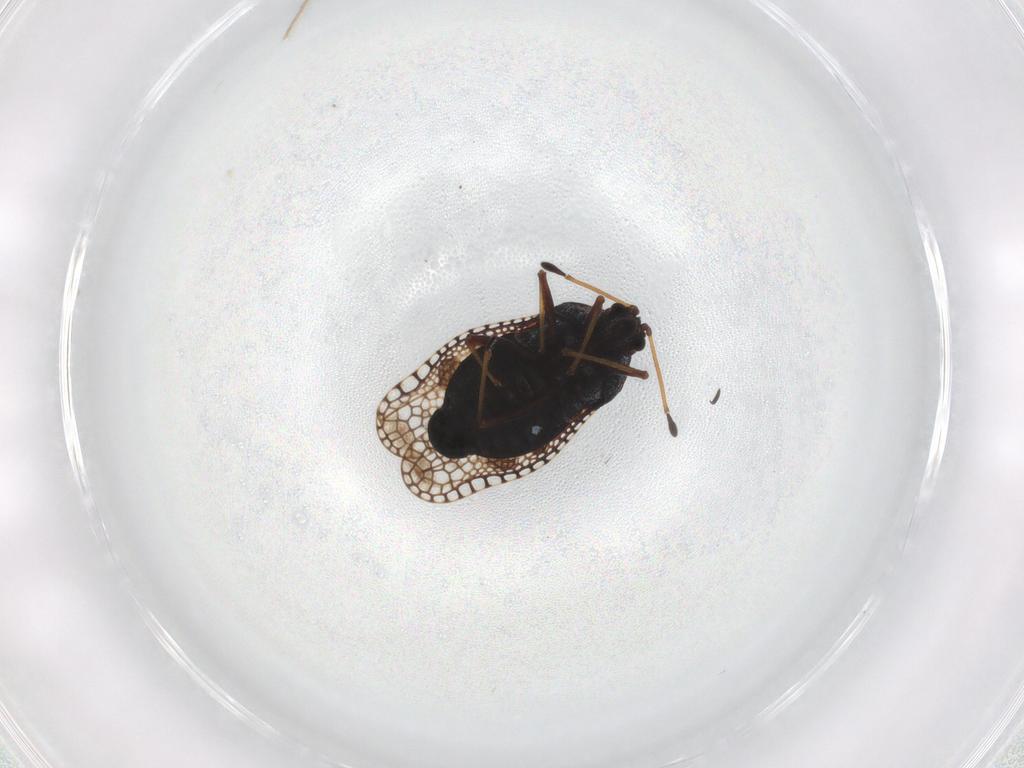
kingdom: Animalia
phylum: Arthropoda
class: Insecta
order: Hemiptera
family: Tingidae
